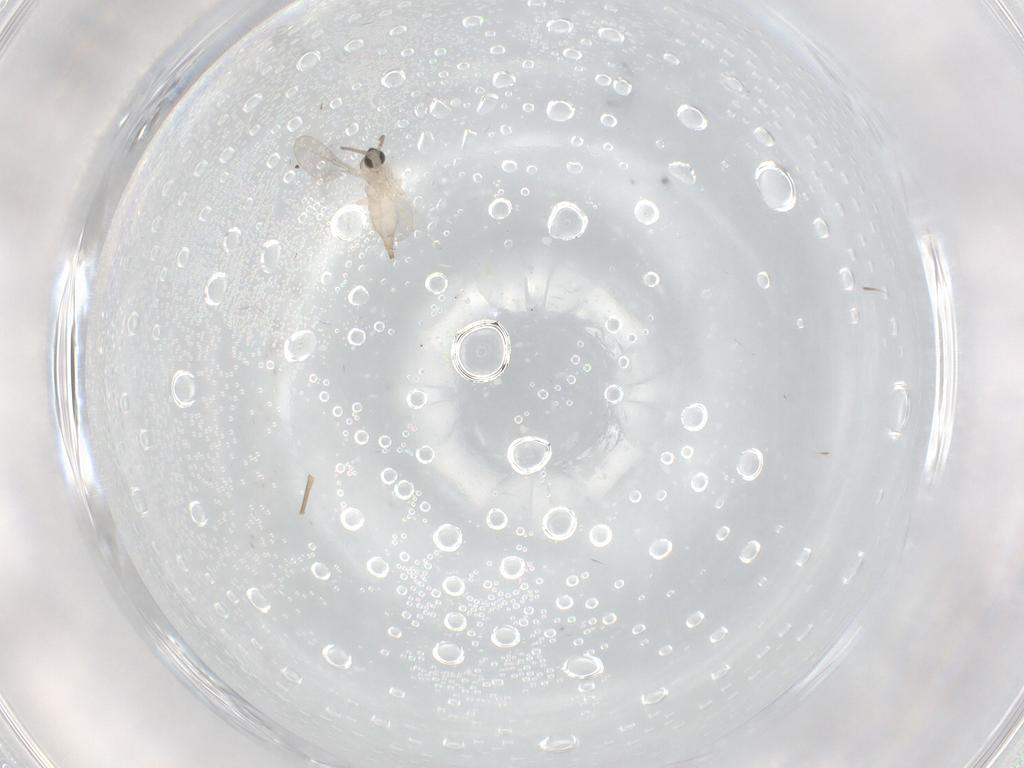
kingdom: Animalia
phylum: Arthropoda
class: Insecta
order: Diptera
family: Cecidomyiidae
